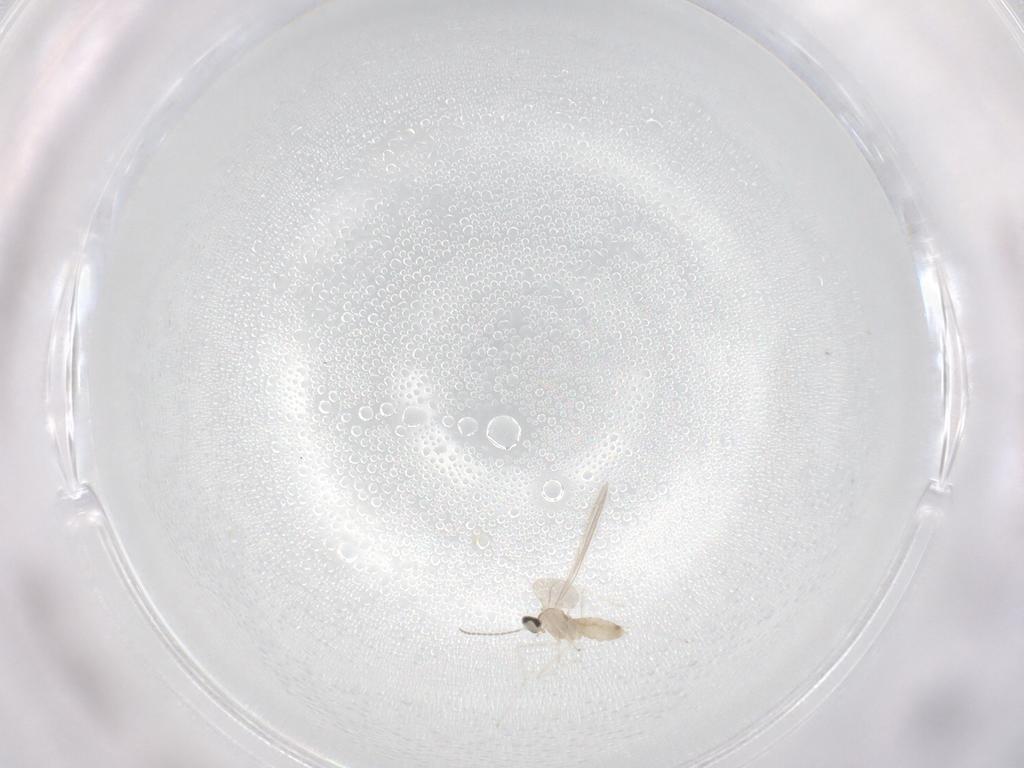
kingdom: Animalia
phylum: Arthropoda
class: Insecta
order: Diptera
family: Cecidomyiidae
